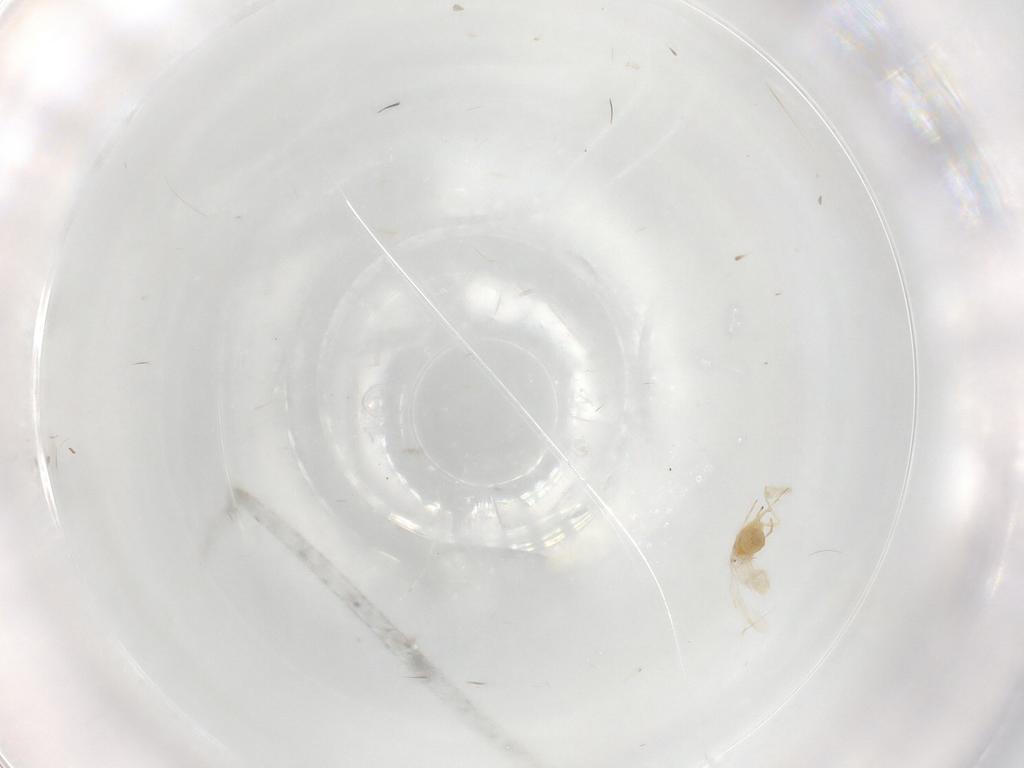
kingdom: Animalia
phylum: Arthropoda
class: Insecta
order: Hemiptera
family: Aleyrodidae
